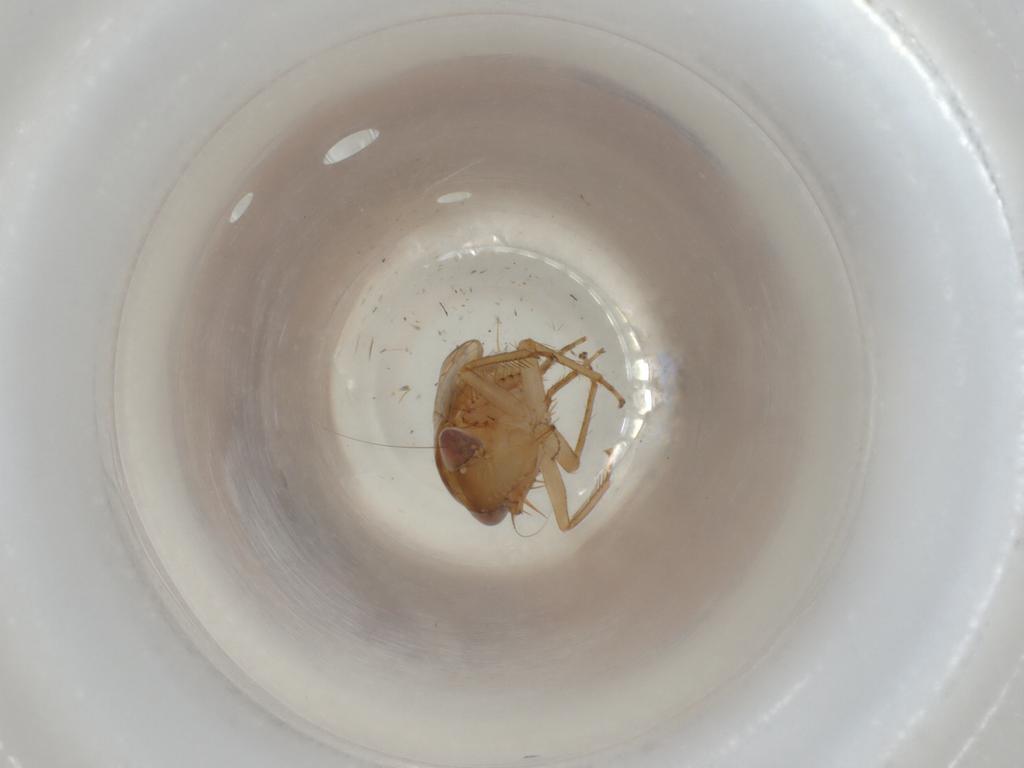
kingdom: Animalia
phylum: Arthropoda
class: Insecta
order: Hemiptera
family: Cicadellidae
